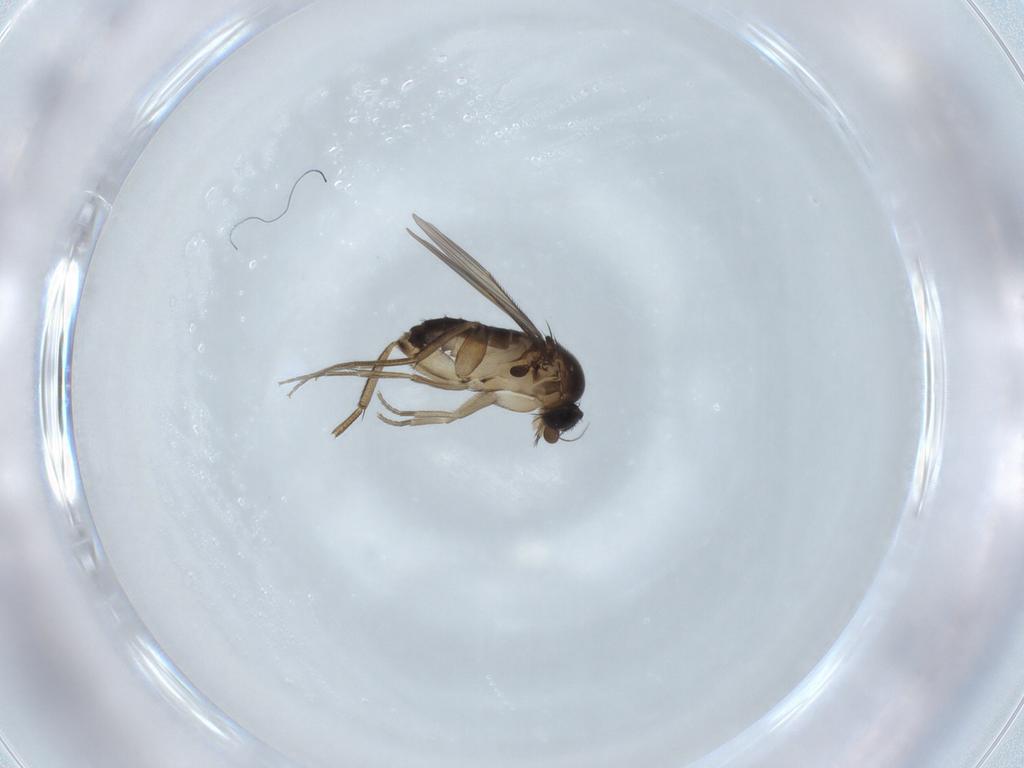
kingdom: Animalia
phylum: Arthropoda
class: Insecta
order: Diptera
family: Phoridae
